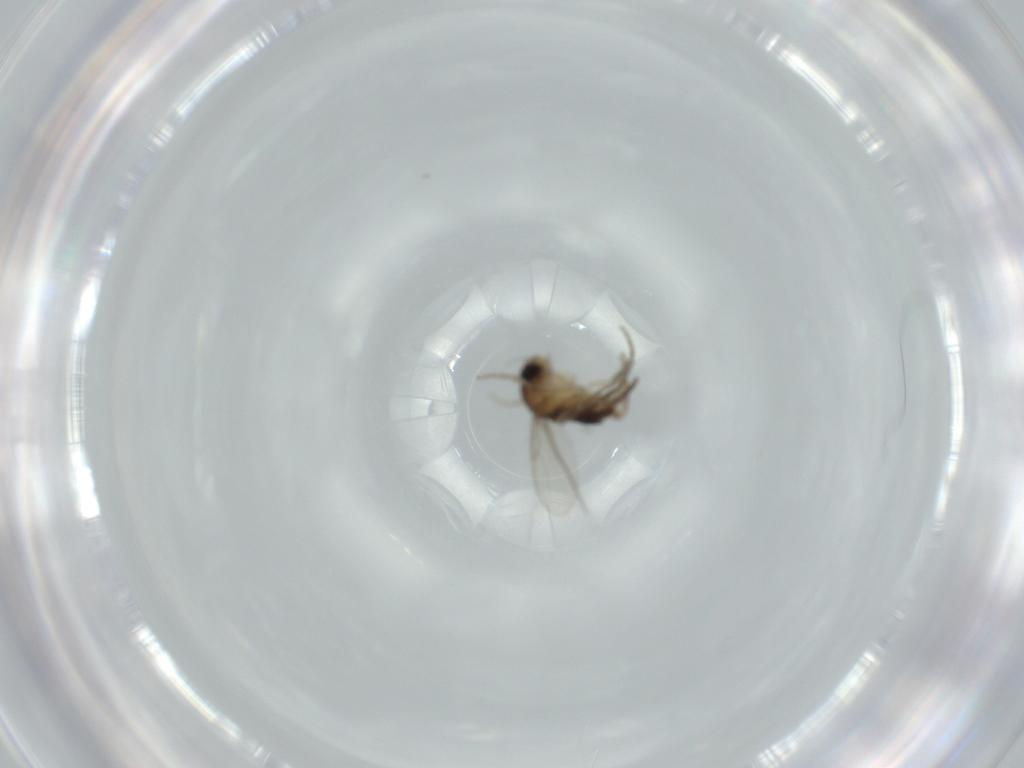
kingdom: Animalia
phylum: Arthropoda
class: Insecta
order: Diptera
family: Phoridae
